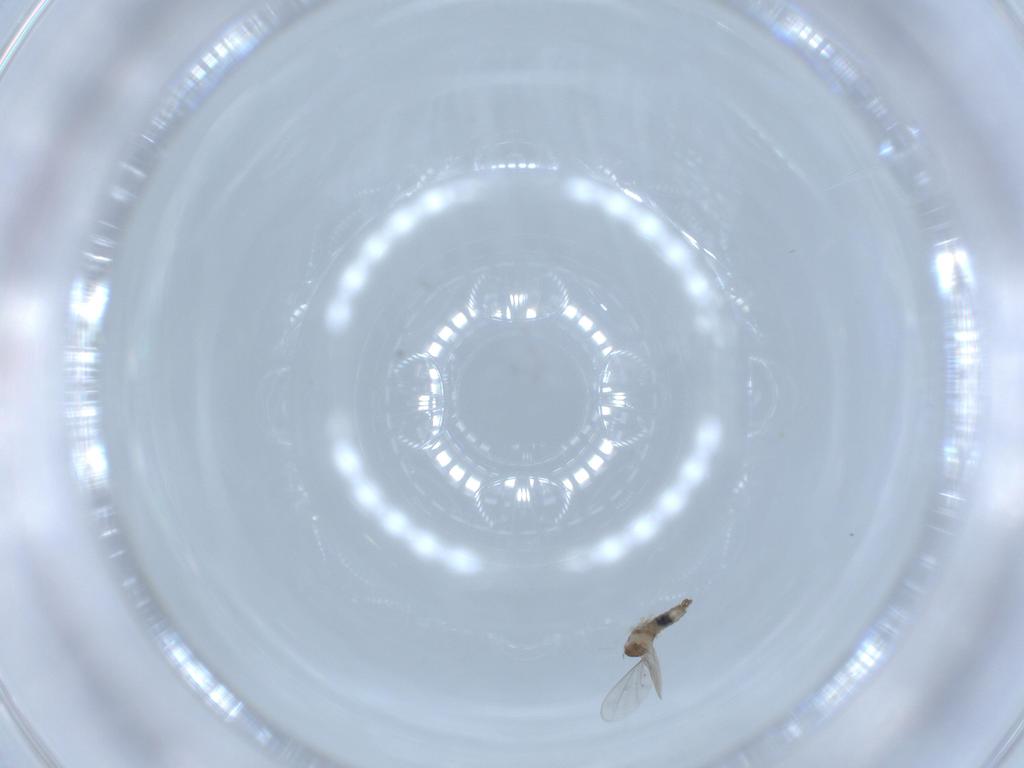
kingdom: Animalia
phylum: Arthropoda
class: Insecta
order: Diptera
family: Cecidomyiidae
